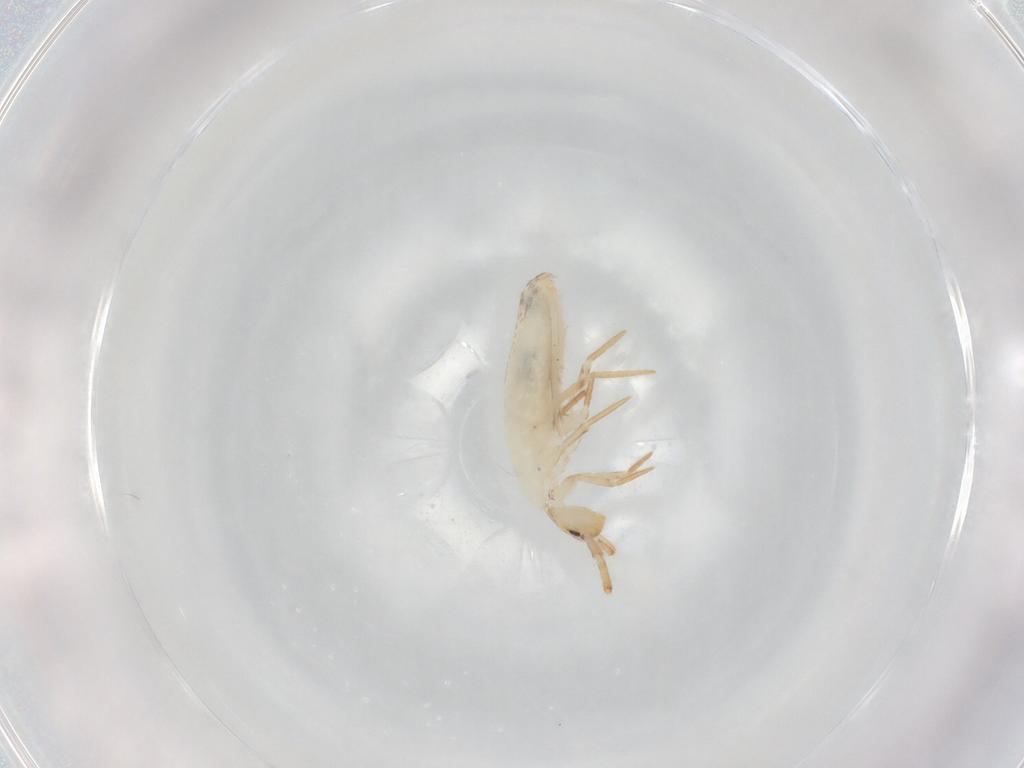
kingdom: Animalia
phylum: Arthropoda
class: Collembola
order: Entomobryomorpha
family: Entomobryidae
